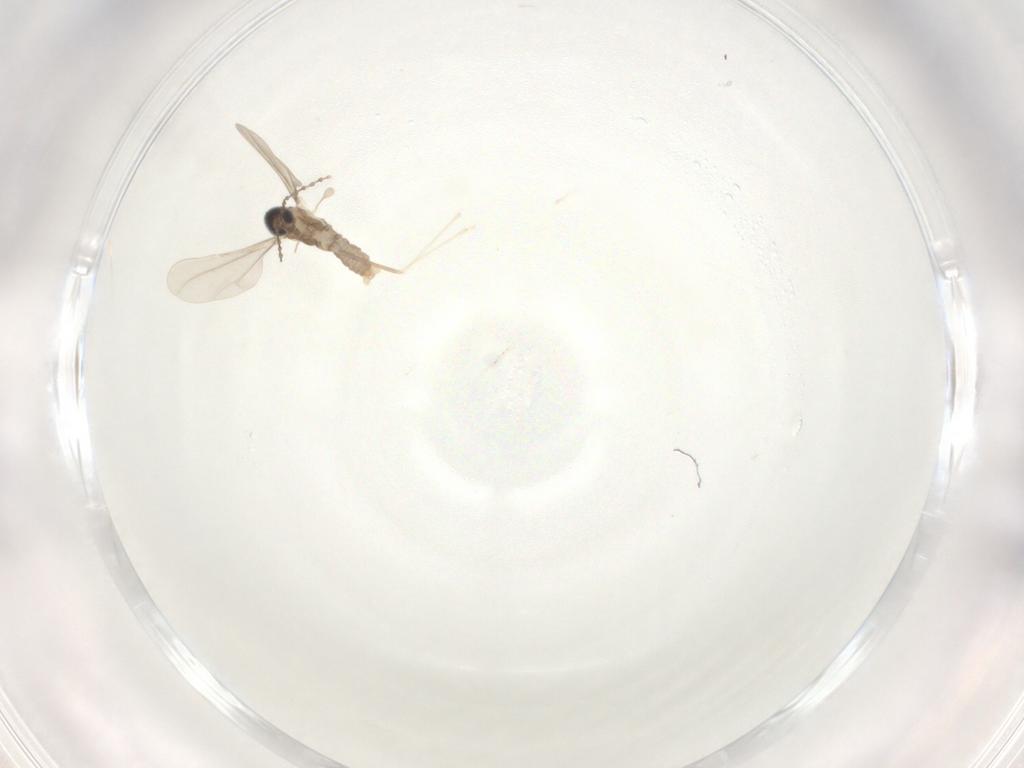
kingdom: Animalia
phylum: Arthropoda
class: Insecta
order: Diptera
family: Cecidomyiidae
